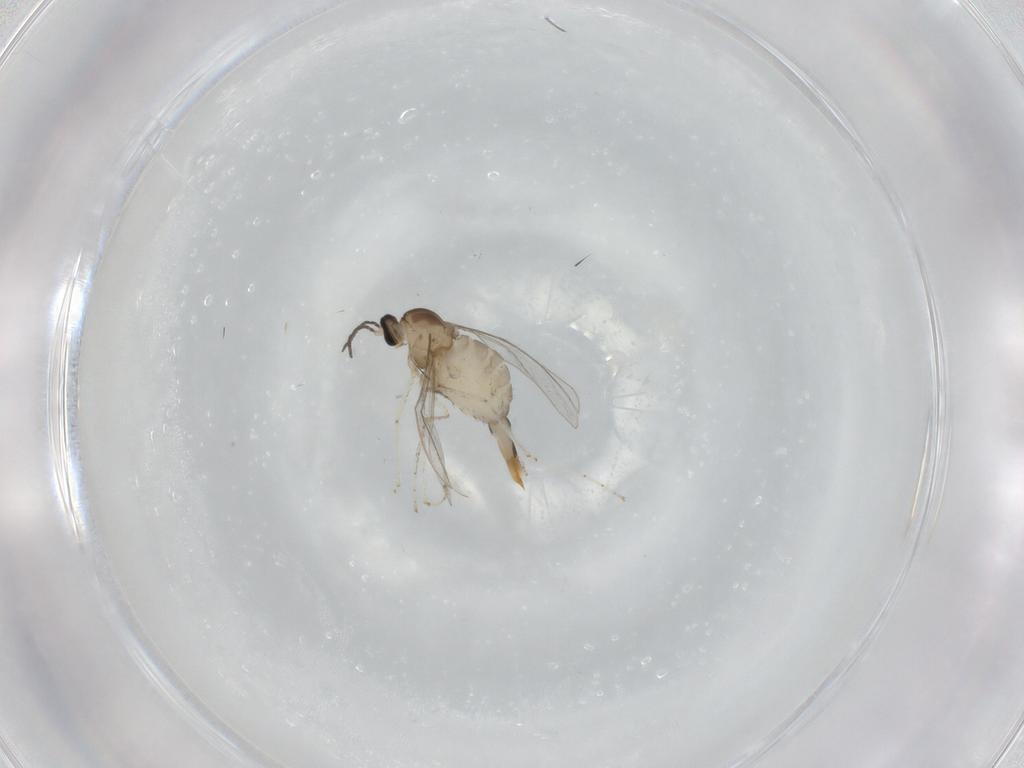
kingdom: Animalia
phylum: Arthropoda
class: Insecta
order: Diptera
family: Cecidomyiidae
